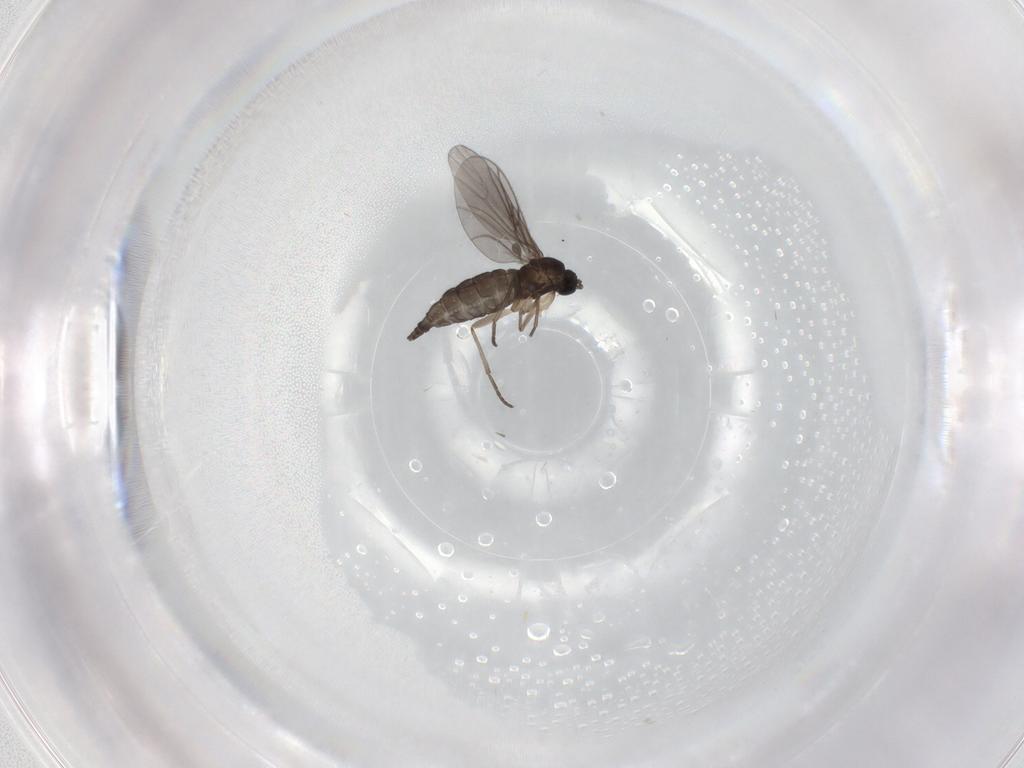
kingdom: Animalia
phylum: Arthropoda
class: Insecta
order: Diptera
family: Sciaridae
